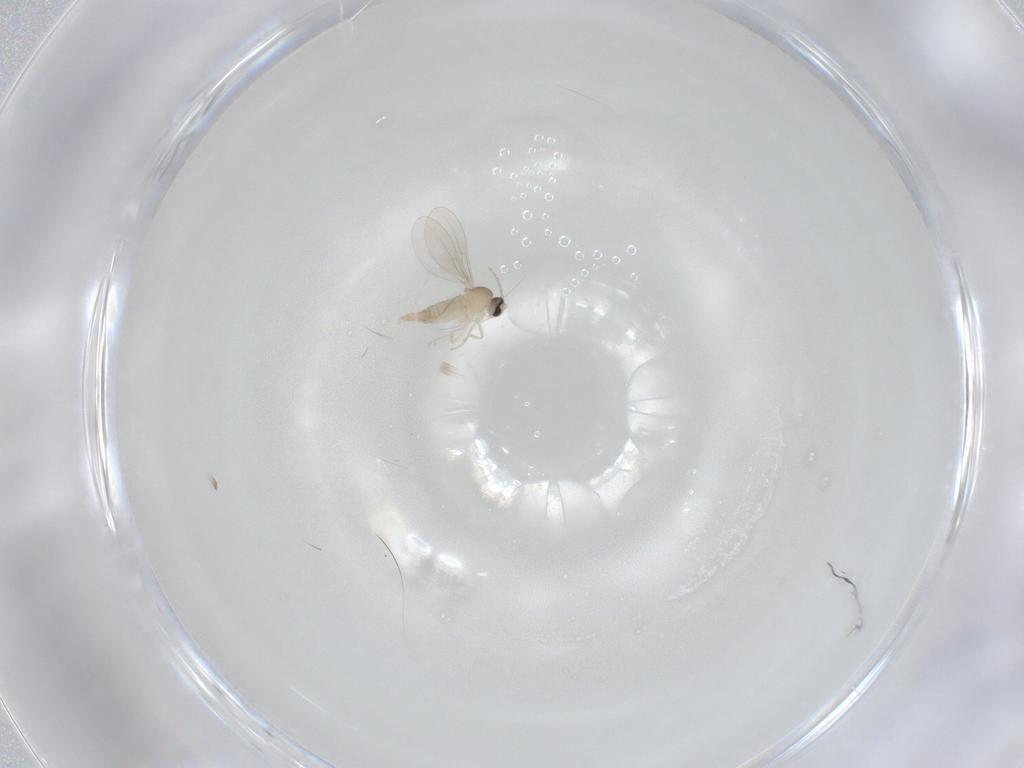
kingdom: Animalia
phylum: Arthropoda
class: Insecta
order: Diptera
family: Cecidomyiidae
